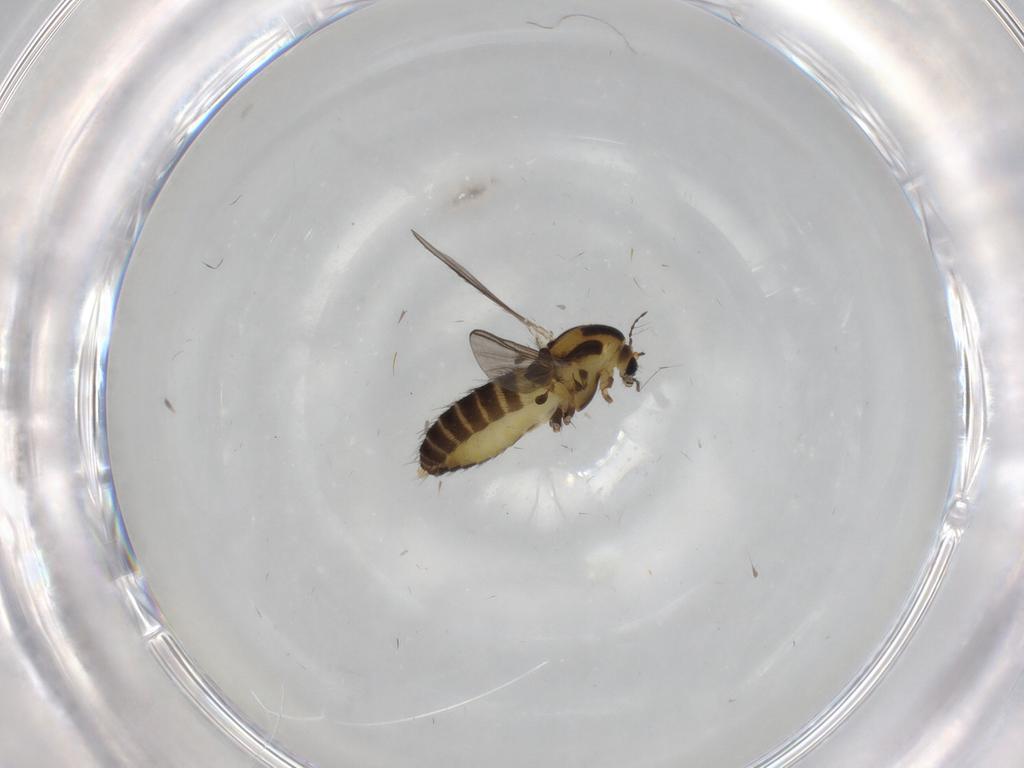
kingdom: Animalia
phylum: Arthropoda
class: Insecta
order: Diptera
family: Chironomidae
